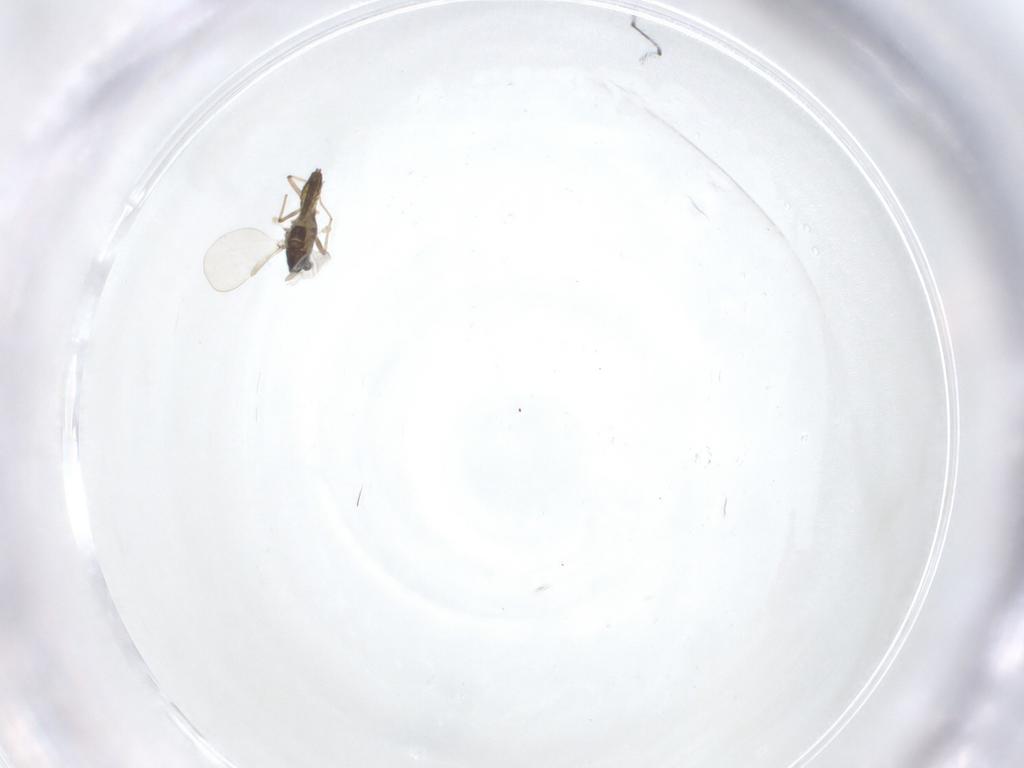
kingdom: Animalia
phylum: Arthropoda
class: Insecta
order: Diptera
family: Chironomidae
